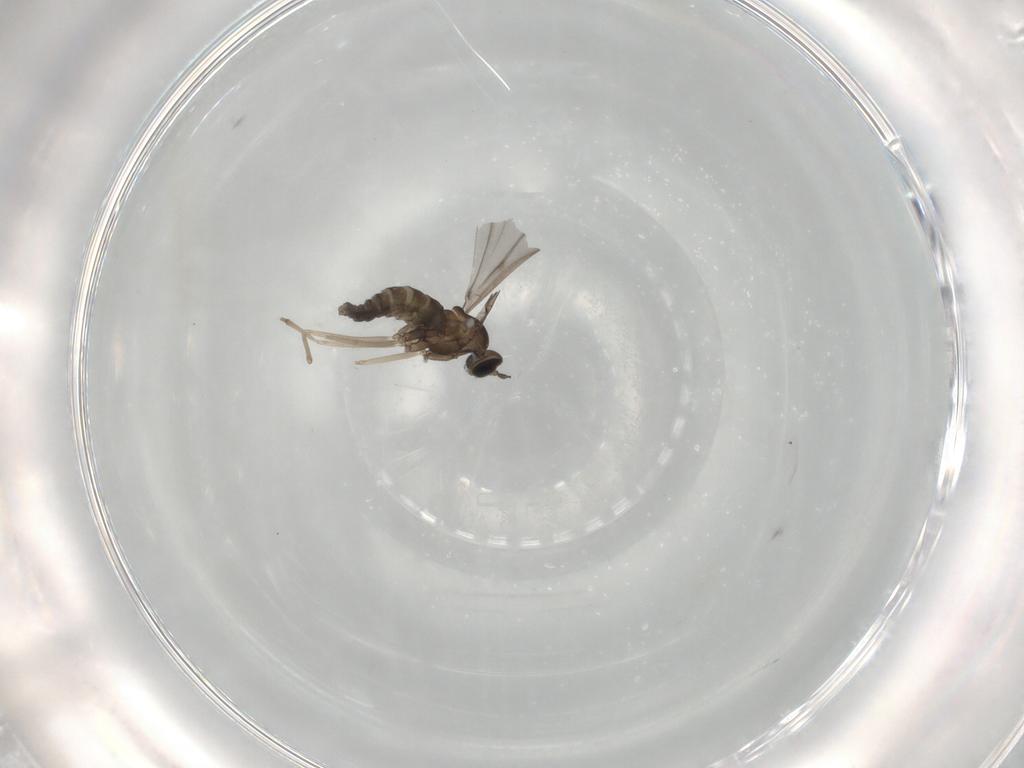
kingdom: Animalia
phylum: Arthropoda
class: Insecta
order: Diptera
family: Cecidomyiidae
